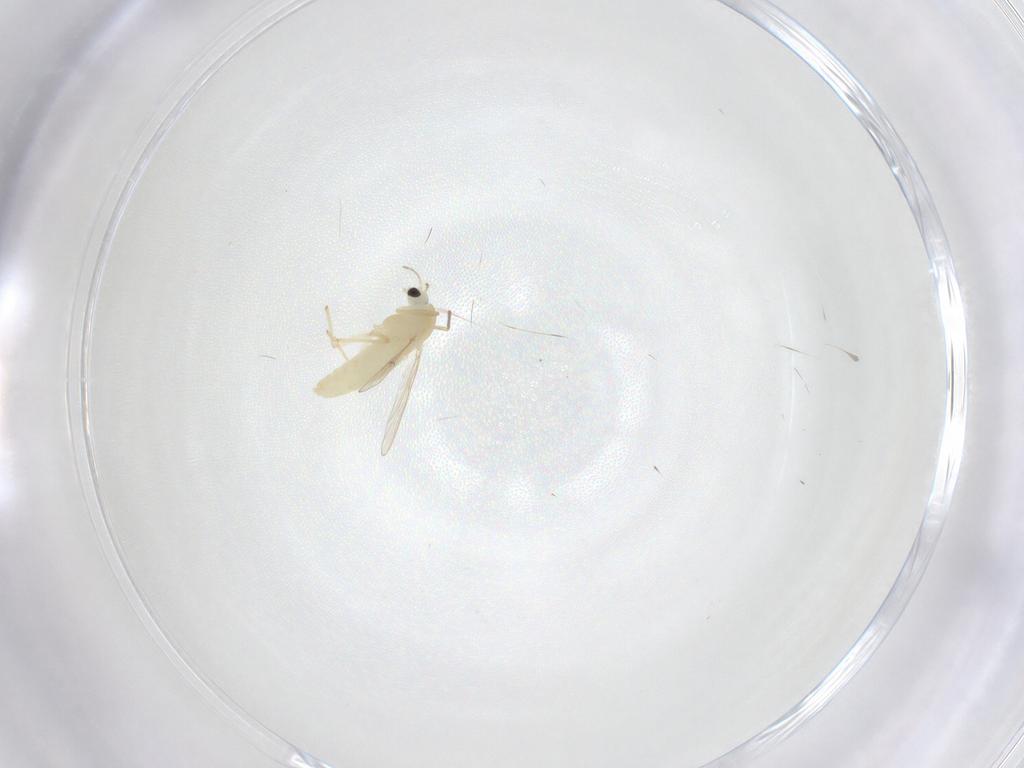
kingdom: Animalia
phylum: Arthropoda
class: Insecta
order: Diptera
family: Chironomidae
